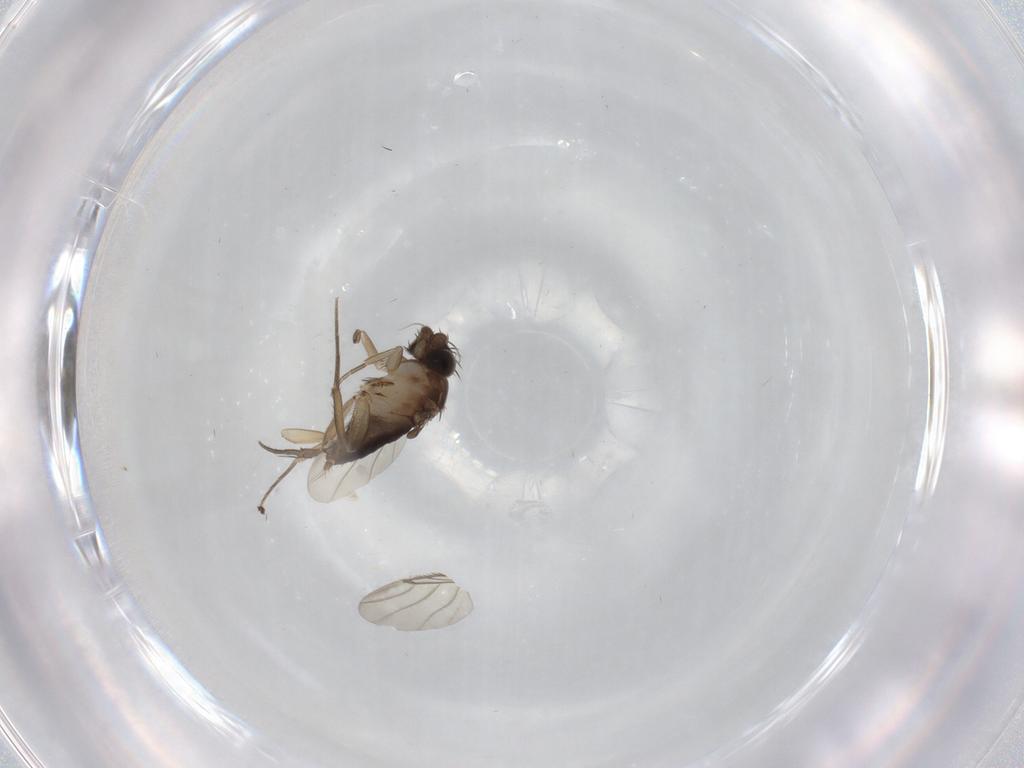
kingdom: Animalia
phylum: Arthropoda
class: Insecta
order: Diptera
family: Phoridae
